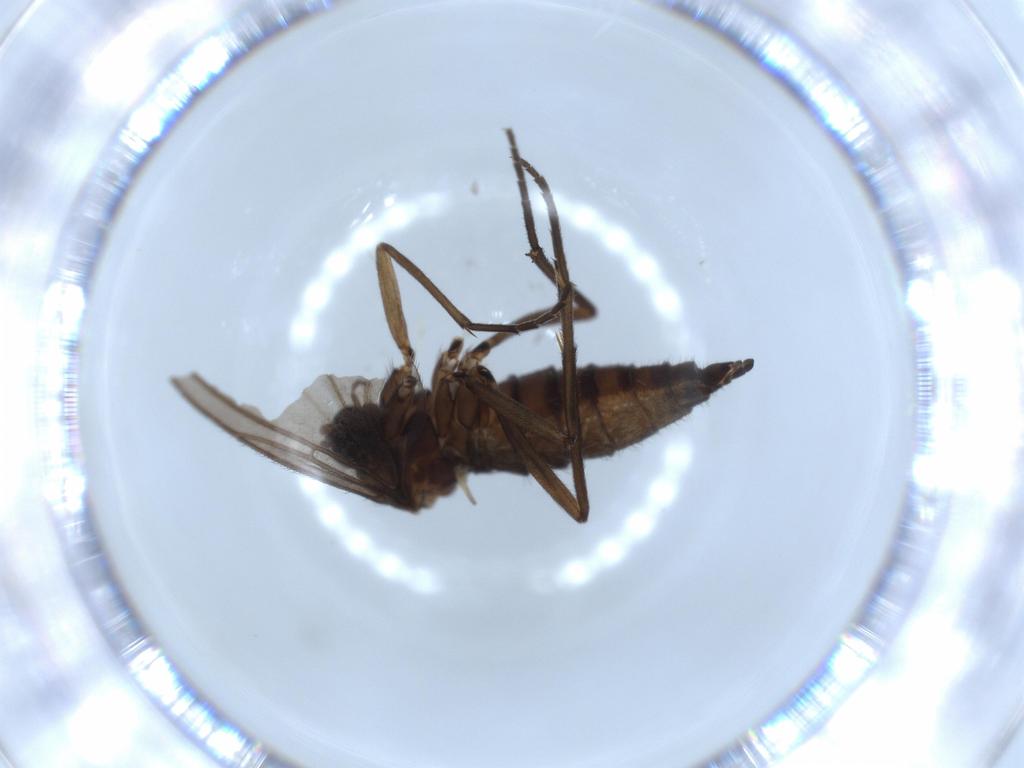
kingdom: Animalia
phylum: Arthropoda
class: Insecta
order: Diptera
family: Sciaridae
